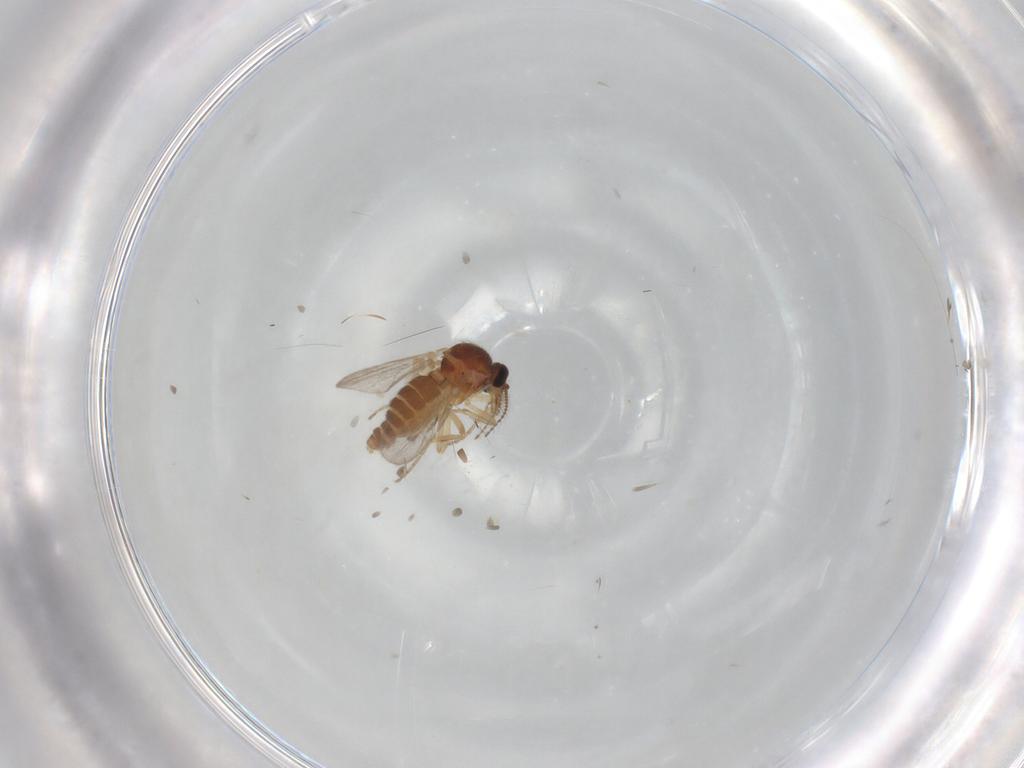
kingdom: Animalia
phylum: Arthropoda
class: Insecta
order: Diptera
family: Ceratopogonidae
